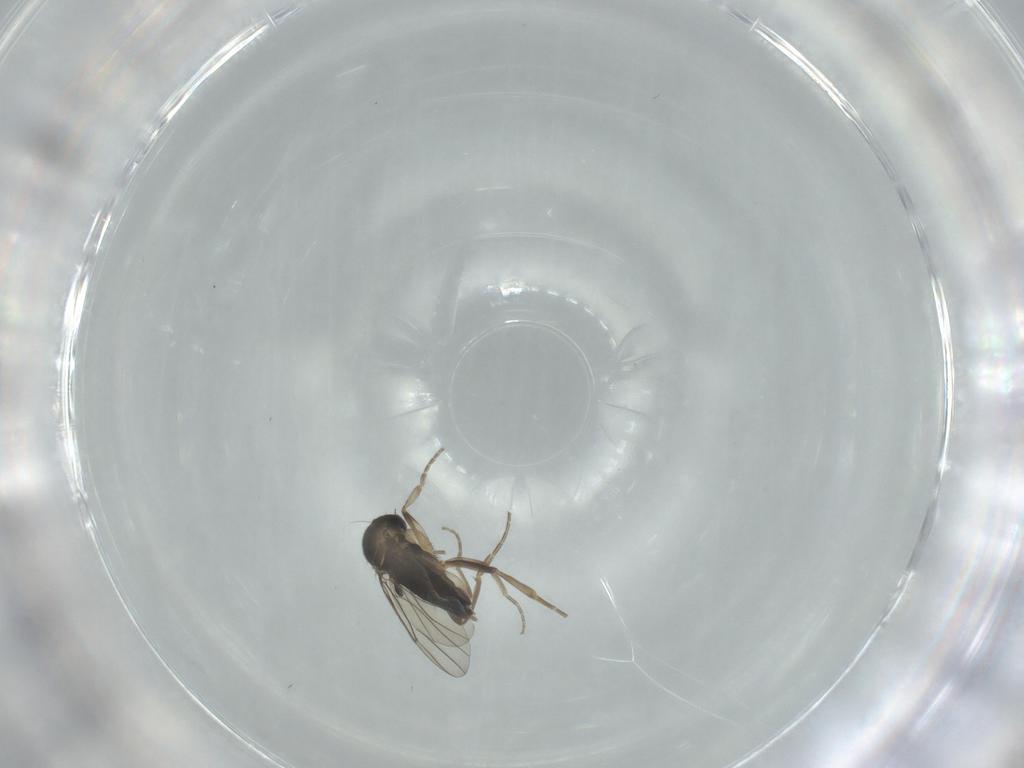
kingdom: Animalia
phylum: Arthropoda
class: Insecta
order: Diptera
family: Phoridae
